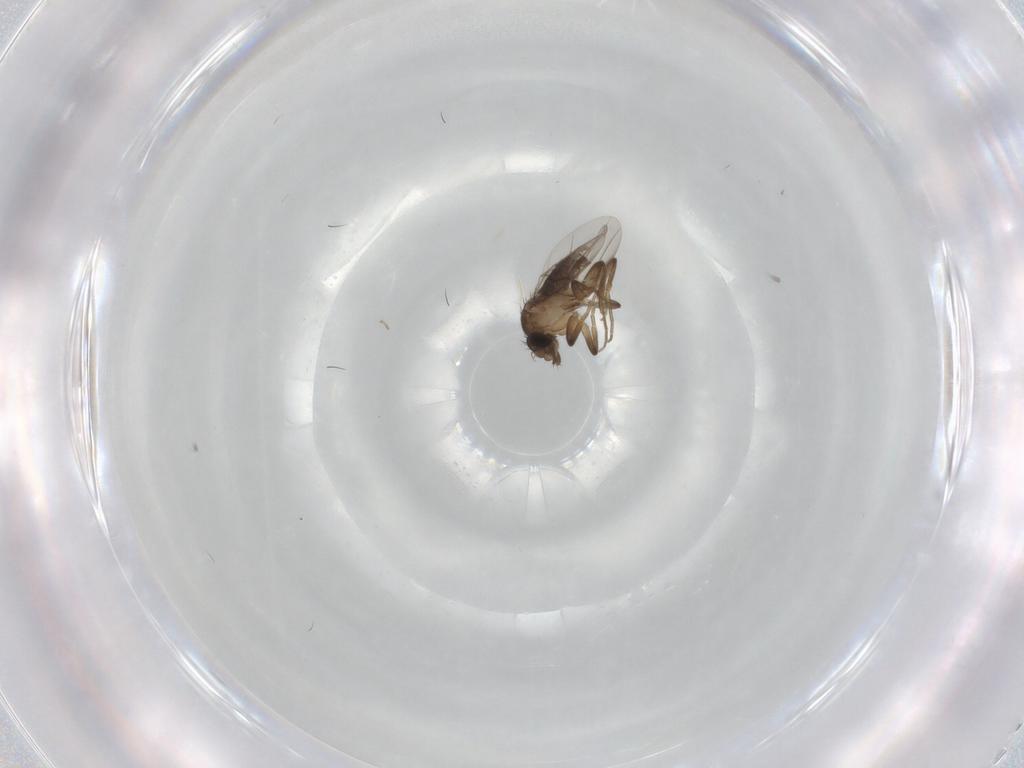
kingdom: Animalia
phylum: Arthropoda
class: Insecta
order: Diptera
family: Phoridae
